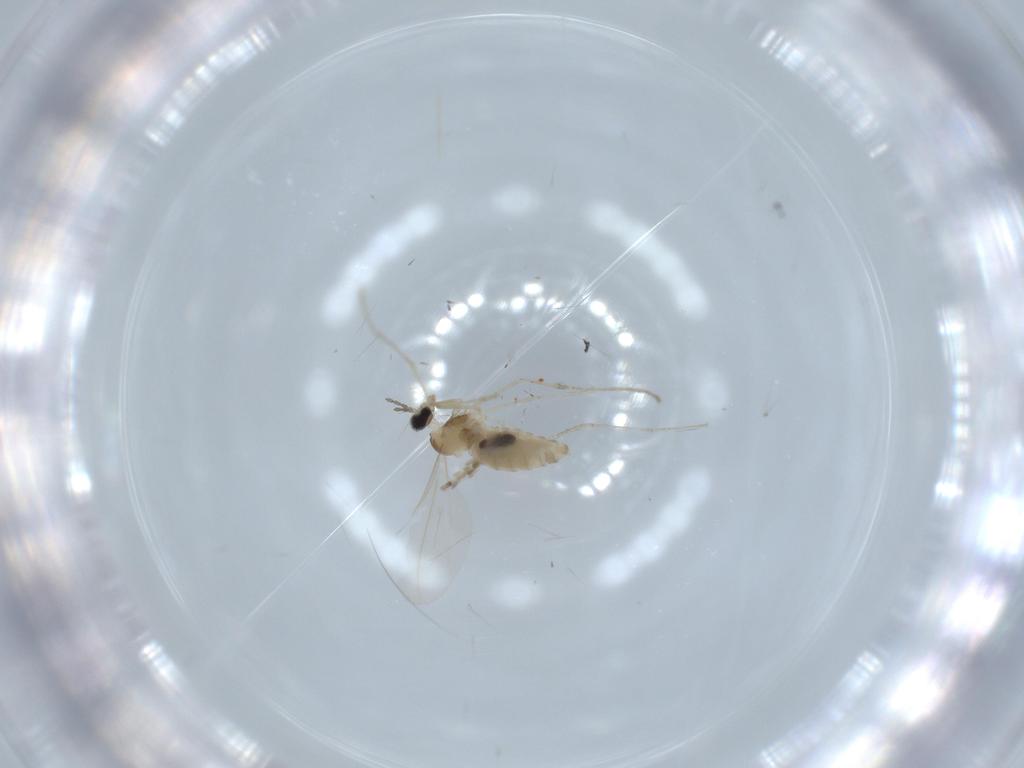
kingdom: Animalia
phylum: Arthropoda
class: Insecta
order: Diptera
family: Cecidomyiidae
